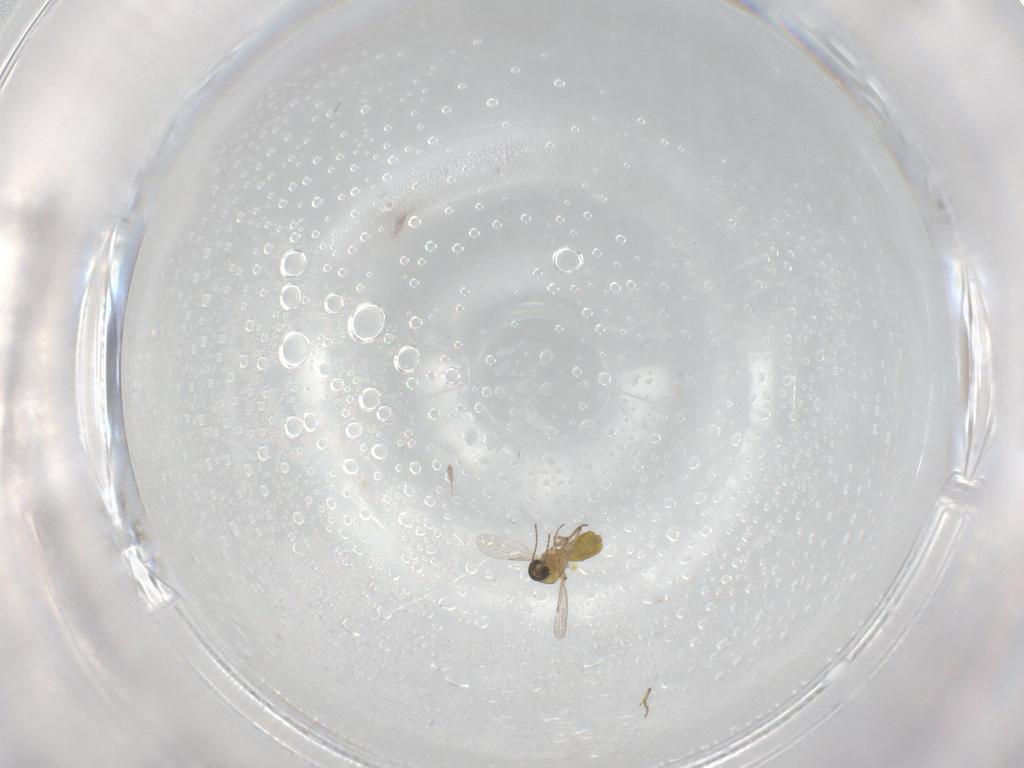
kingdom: Animalia
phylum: Arthropoda
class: Insecta
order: Diptera
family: Ceratopogonidae
